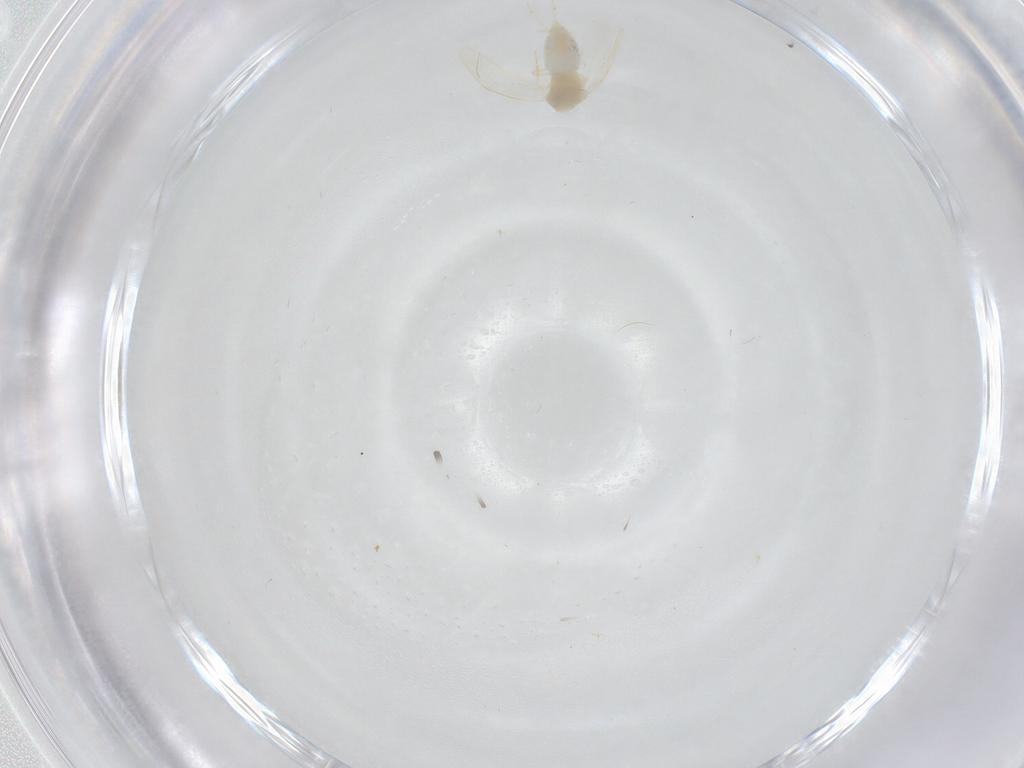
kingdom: Animalia
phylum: Arthropoda
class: Insecta
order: Hemiptera
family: Aleyrodidae
